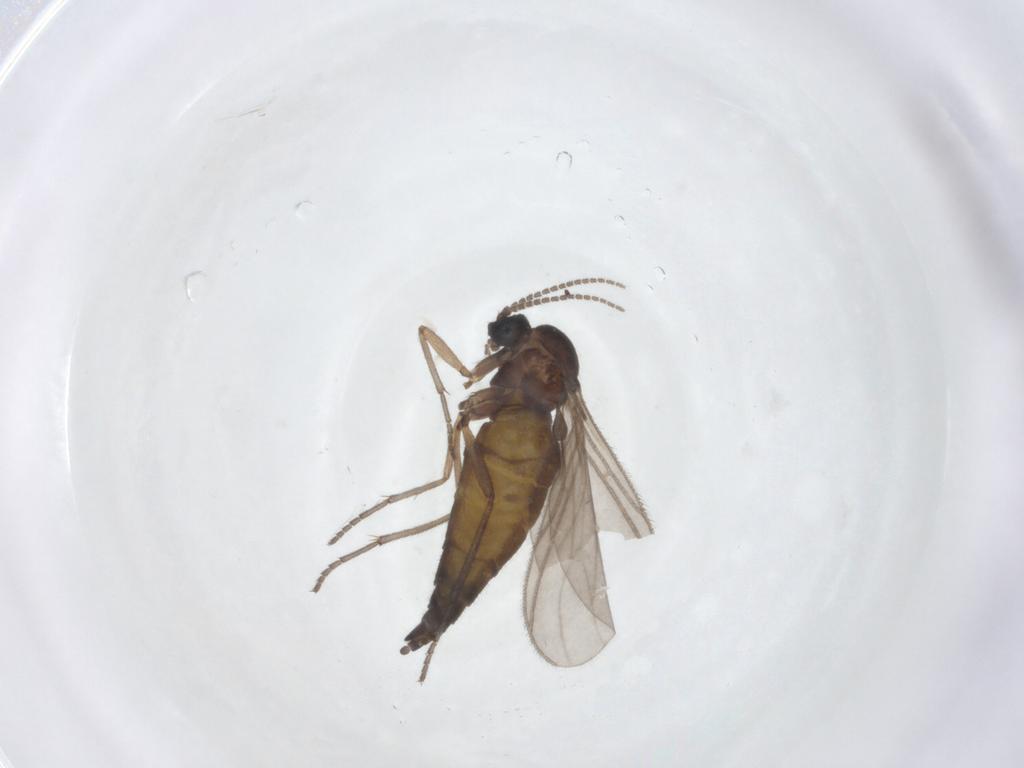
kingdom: Animalia
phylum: Arthropoda
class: Insecta
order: Diptera
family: Sciaridae
